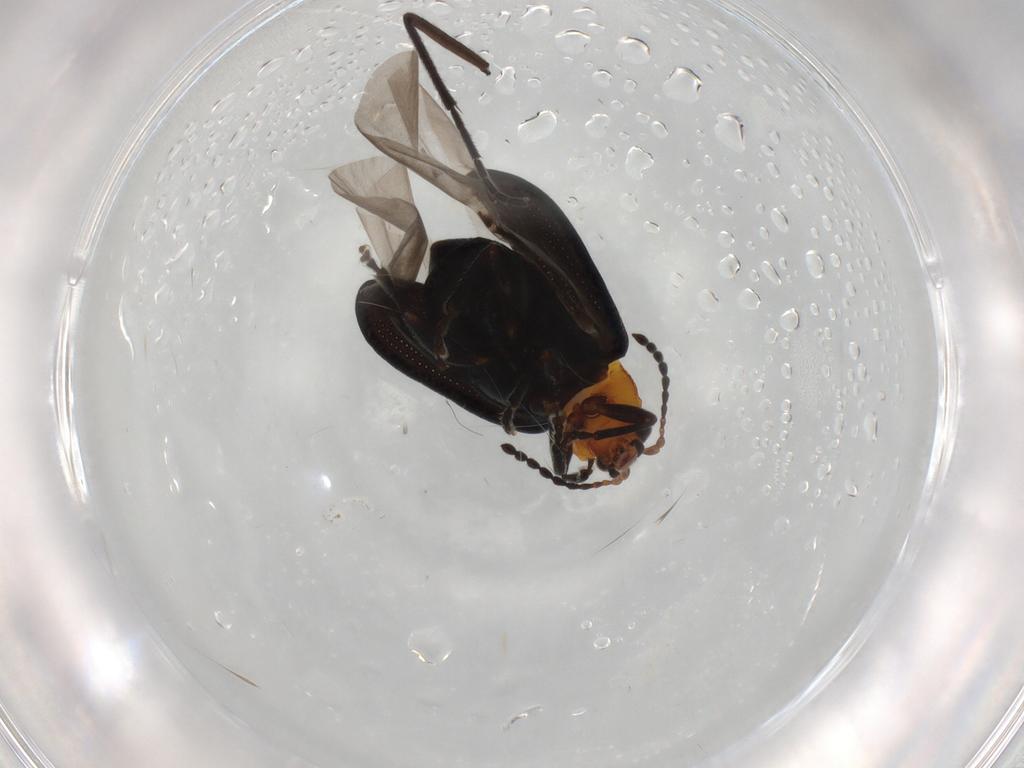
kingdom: Animalia
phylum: Arthropoda
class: Insecta
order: Coleoptera
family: Chrysomelidae
